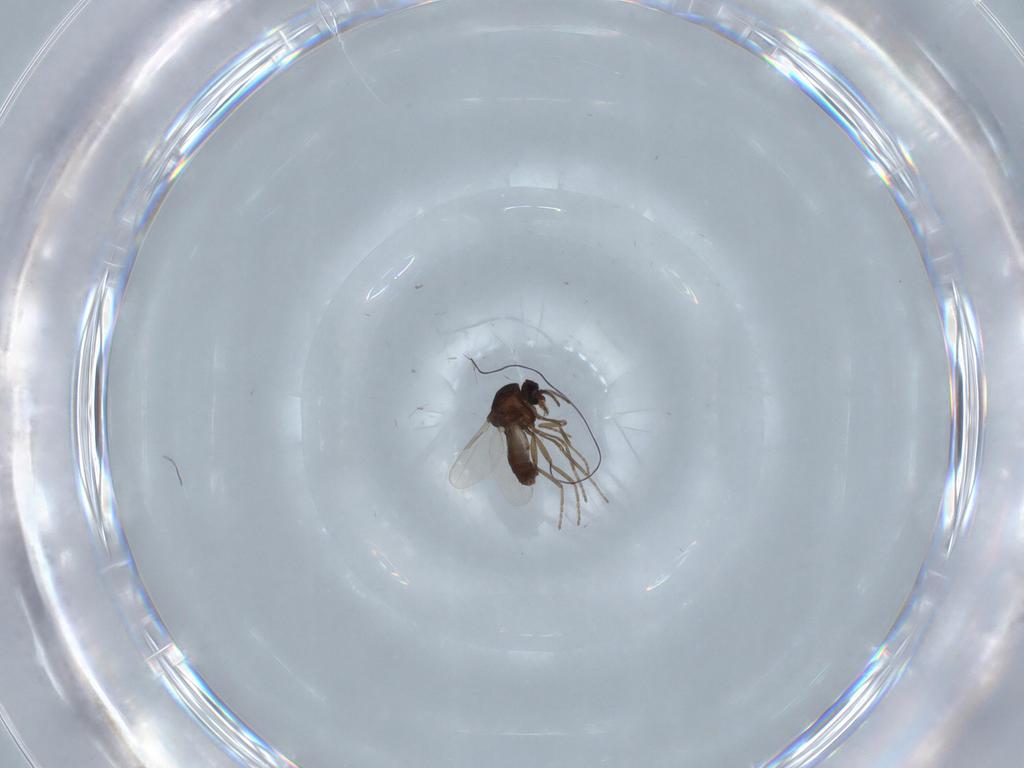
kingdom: Animalia
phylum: Arthropoda
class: Insecta
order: Diptera
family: Ceratopogonidae
